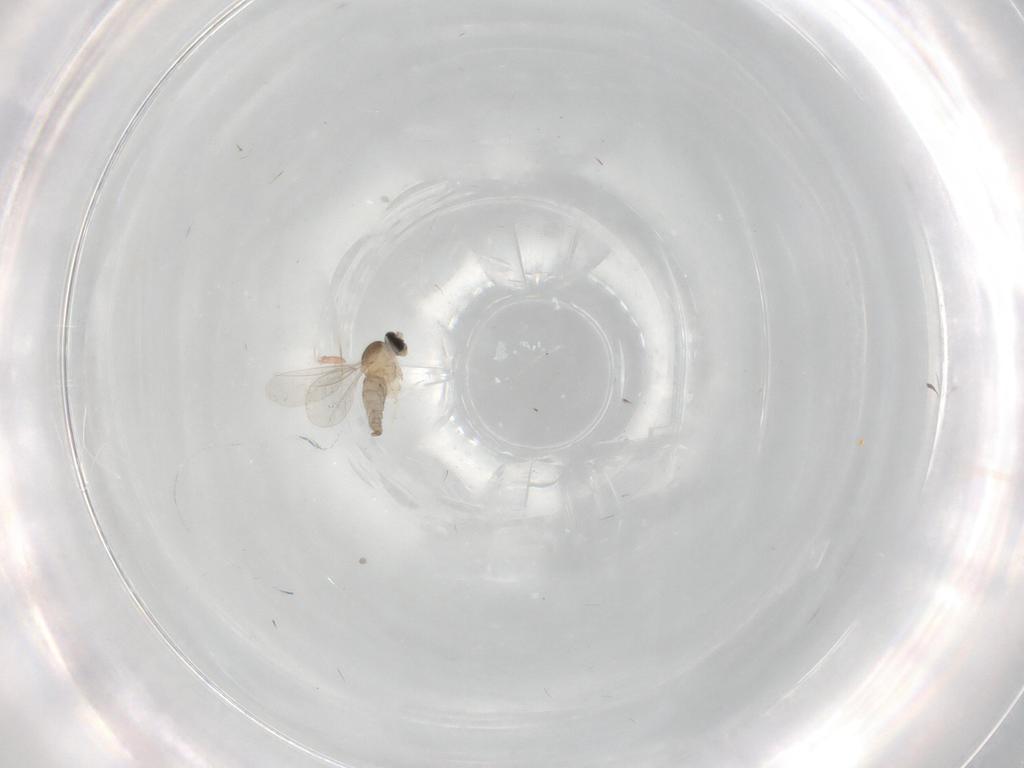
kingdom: Animalia
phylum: Arthropoda
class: Insecta
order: Diptera
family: Cecidomyiidae
